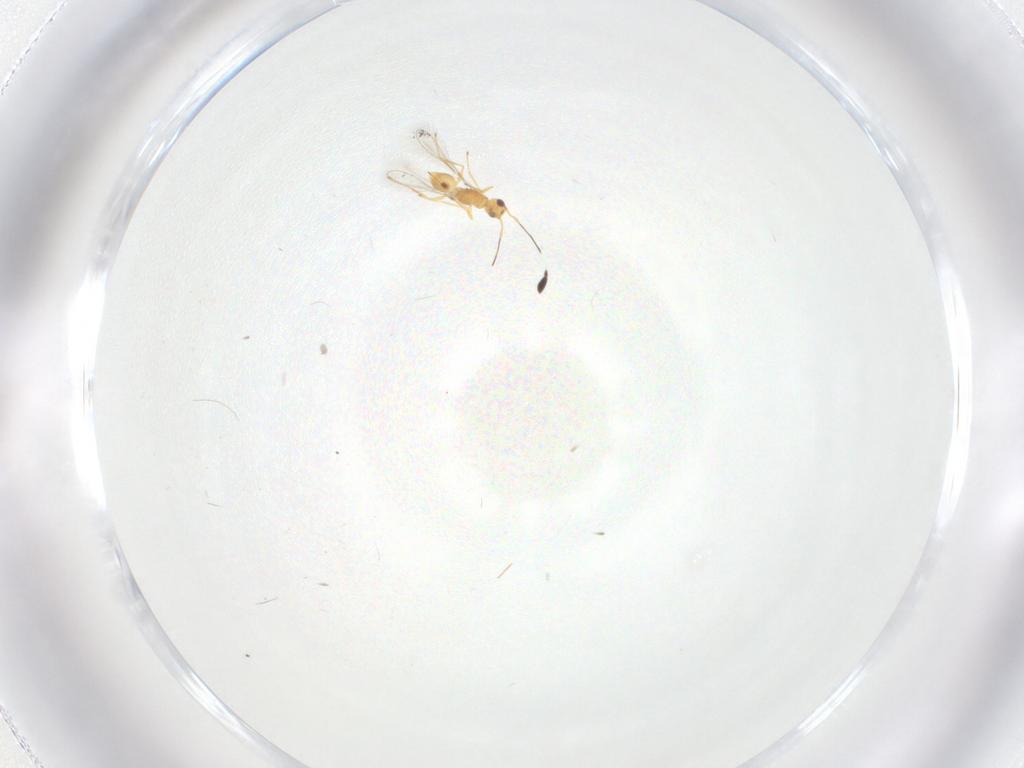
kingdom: Animalia
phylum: Arthropoda
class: Insecta
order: Hymenoptera
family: Mymaridae
